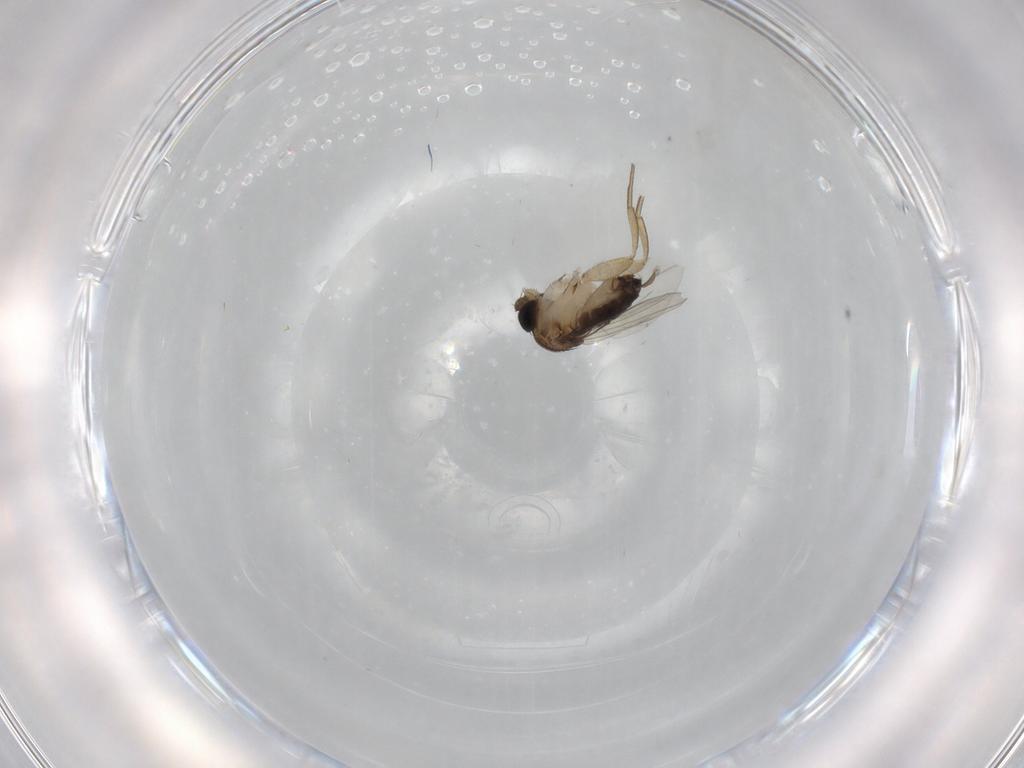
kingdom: Animalia
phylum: Arthropoda
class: Insecta
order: Diptera
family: Phoridae
